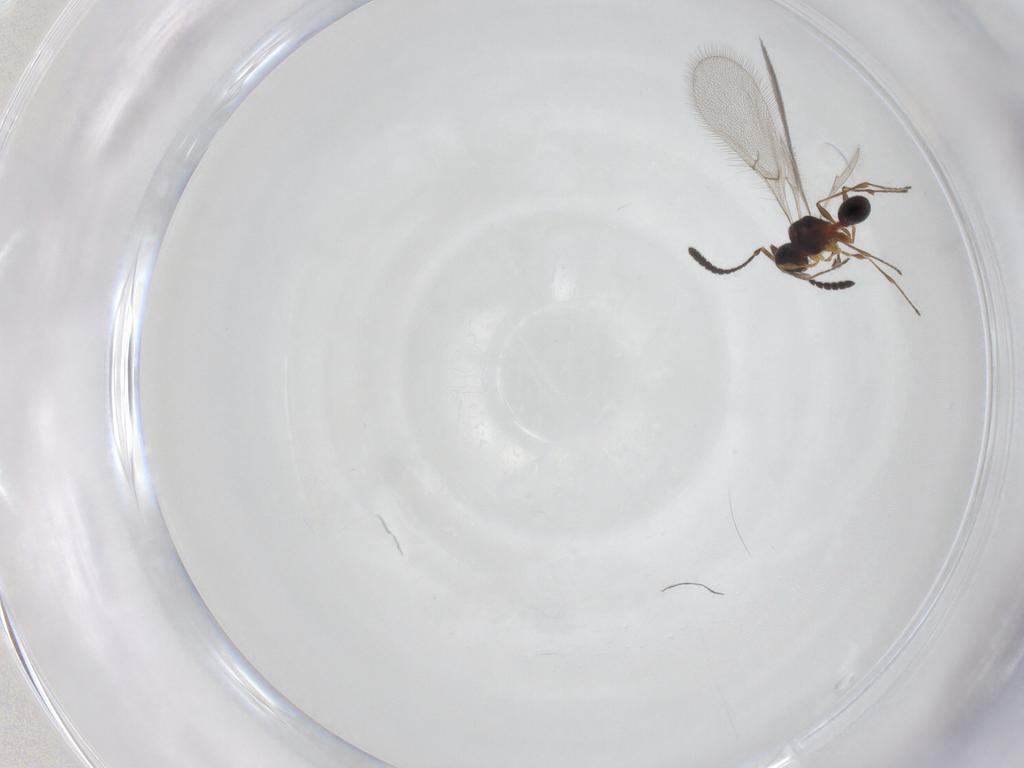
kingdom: Animalia
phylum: Arthropoda
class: Insecta
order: Hymenoptera
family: Diapriidae
